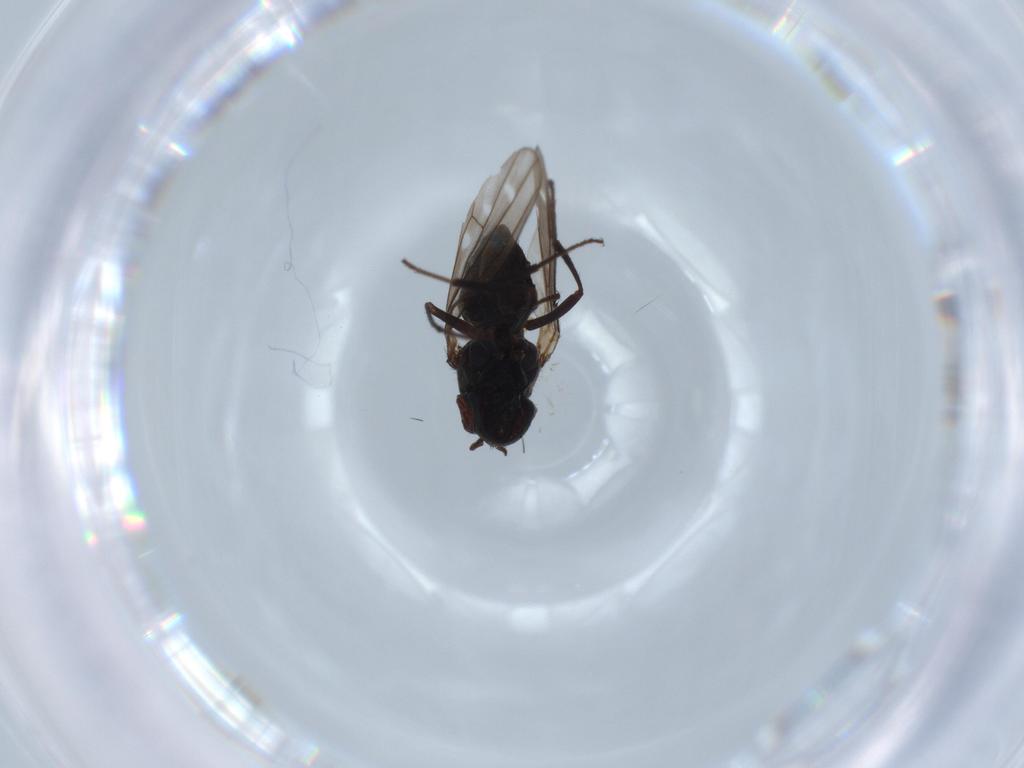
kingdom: Animalia
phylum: Arthropoda
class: Insecta
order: Diptera
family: Ephydridae
